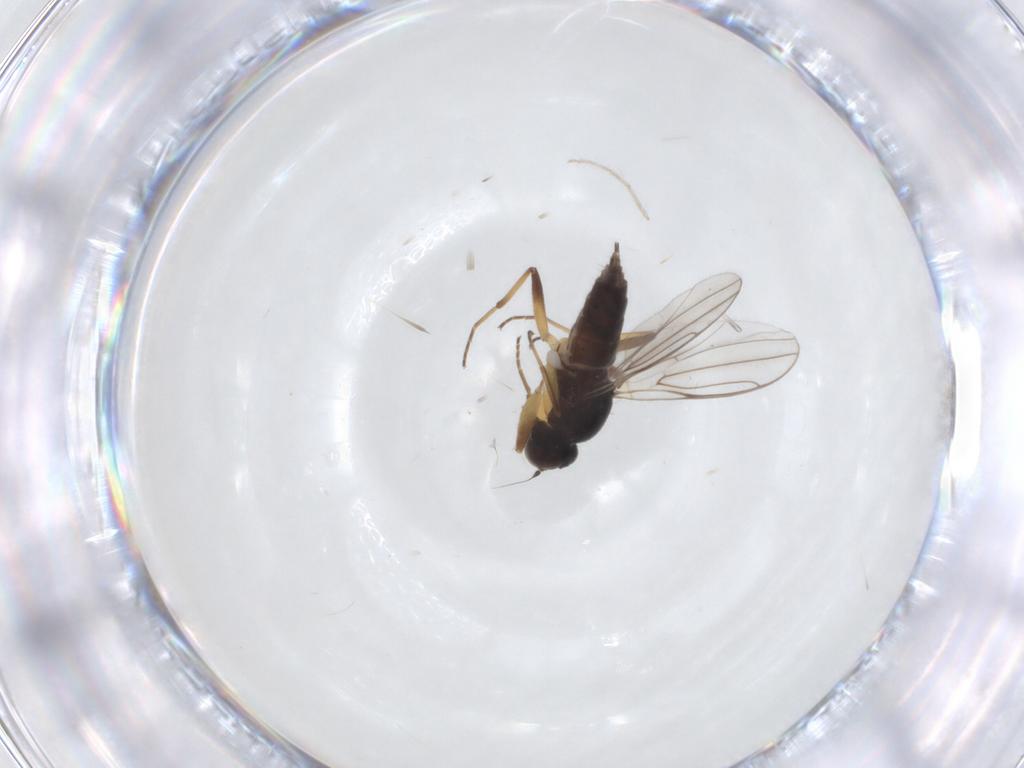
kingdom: Animalia
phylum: Arthropoda
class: Insecta
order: Diptera
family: Hybotidae
